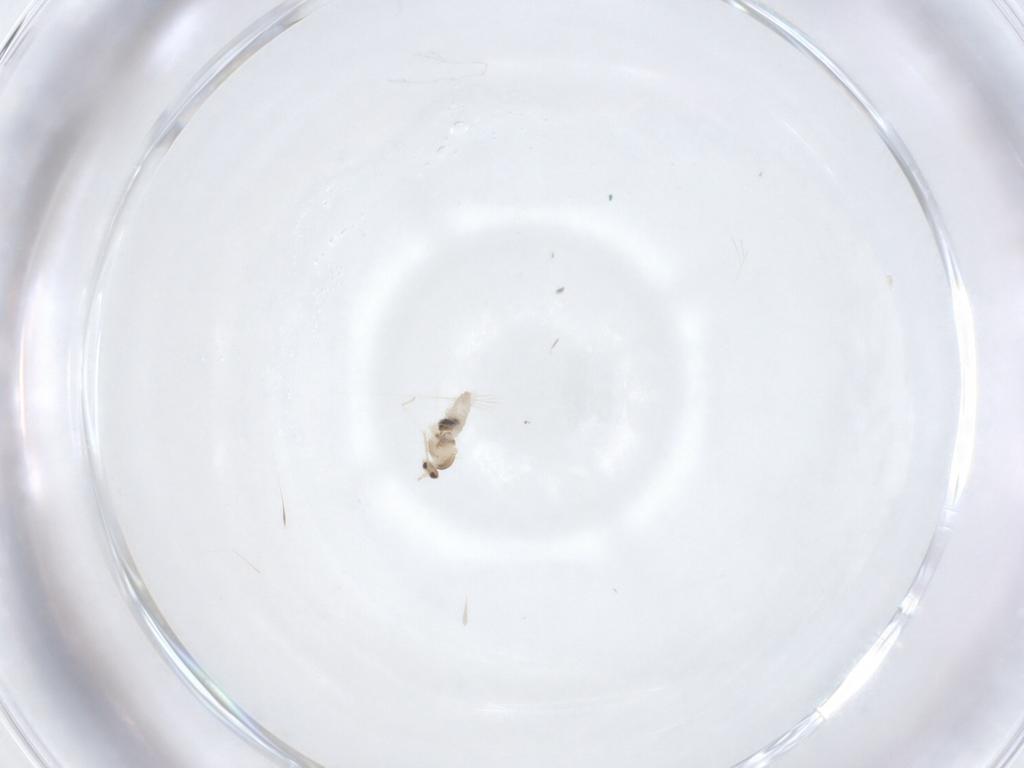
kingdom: Animalia
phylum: Arthropoda
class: Insecta
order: Diptera
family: Cecidomyiidae
